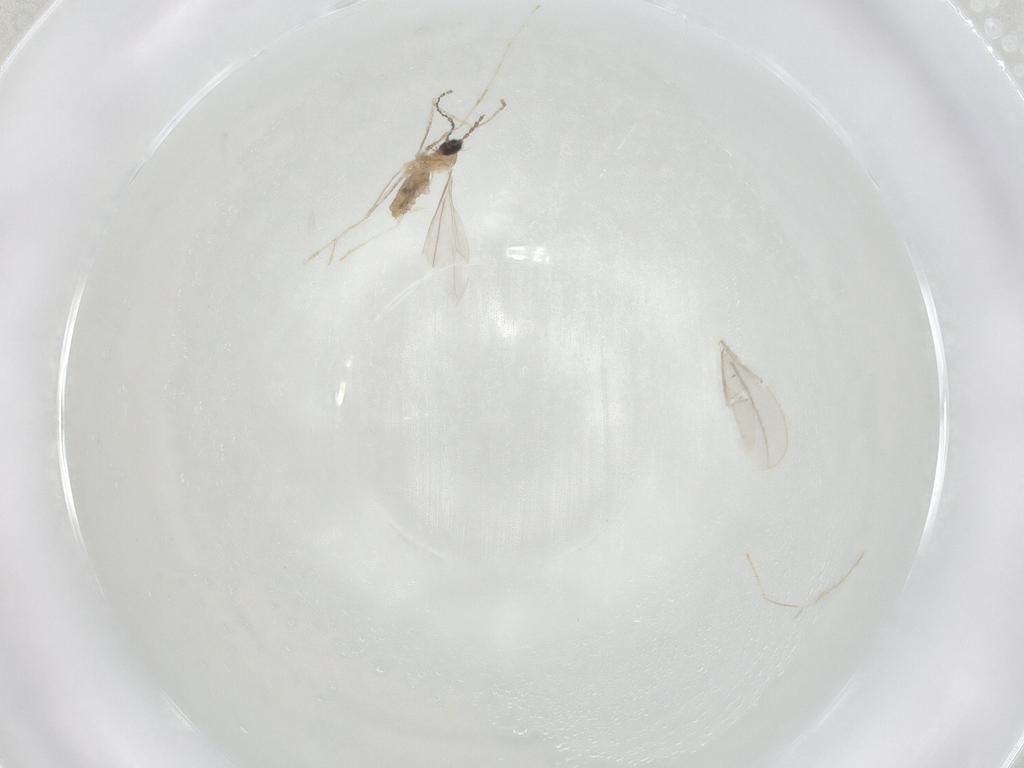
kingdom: Animalia
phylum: Arthropoda
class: Insecta
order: Diptera
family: Cecidomyiidae
